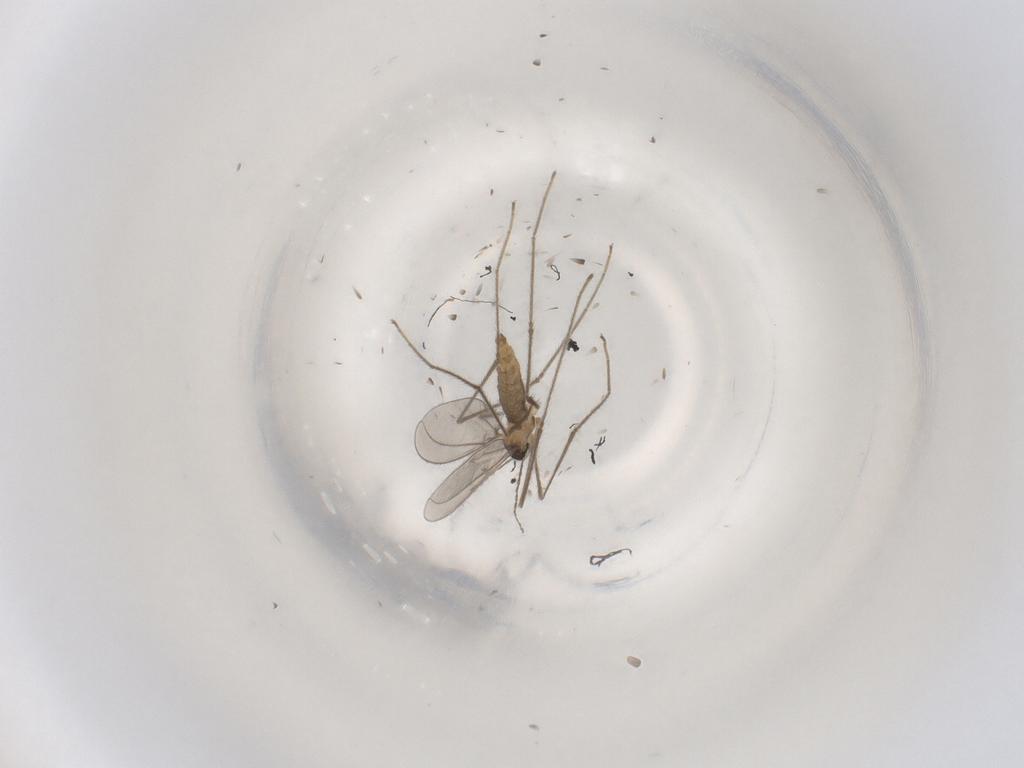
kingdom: Animalia
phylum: Arthropoda
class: Insecta
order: Diptera
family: Cecidomyiidae
